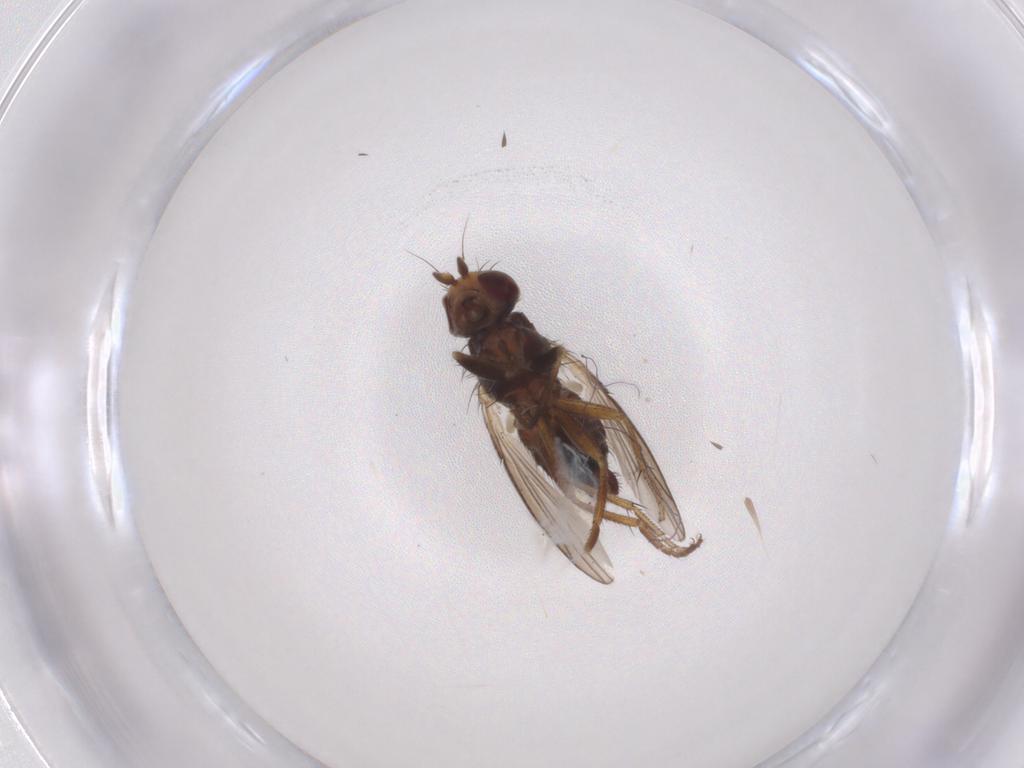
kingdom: Animalia
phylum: Arthropoda
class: Insecta
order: Diptera
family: Heleomyzidae
